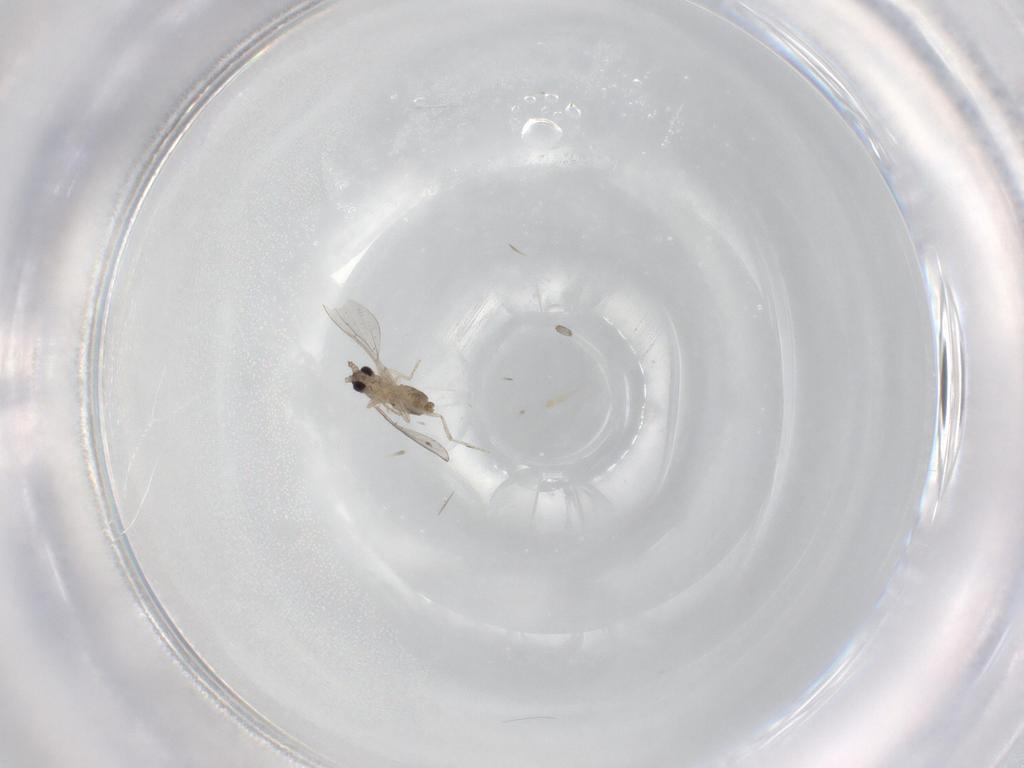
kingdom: Animalia
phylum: Arthropoda
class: Insecta
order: Diptera
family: Cecidomyiidae
